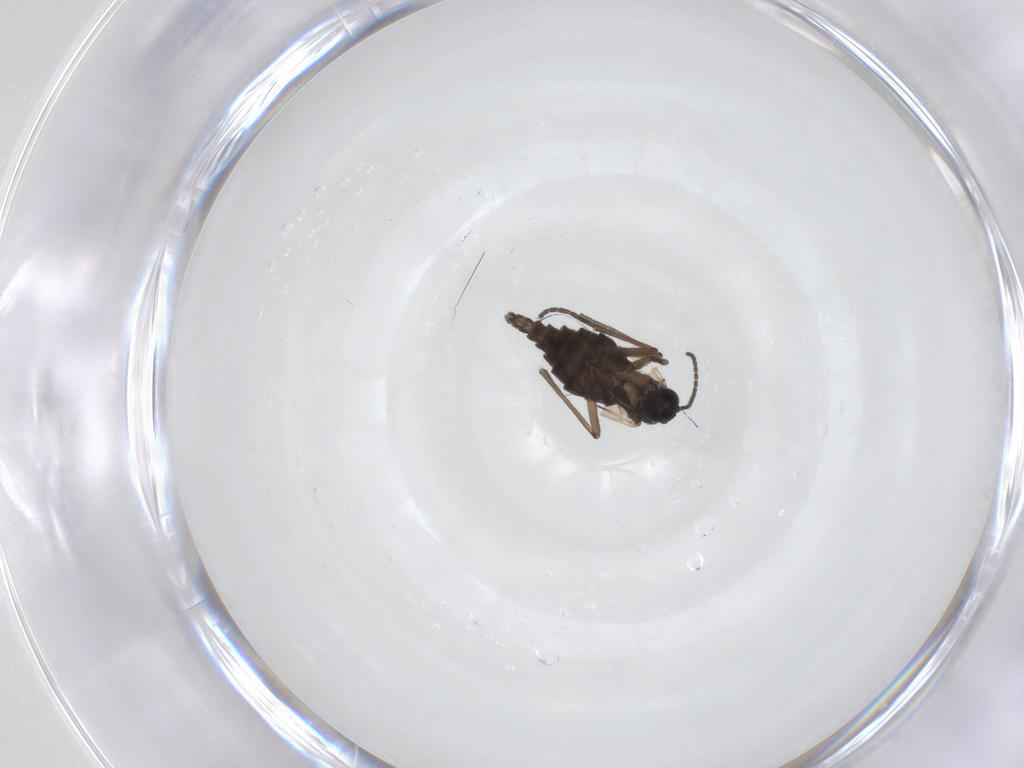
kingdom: Animalia
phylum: Arthropoda
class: Insecta
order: Diptera
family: Sciaridae
